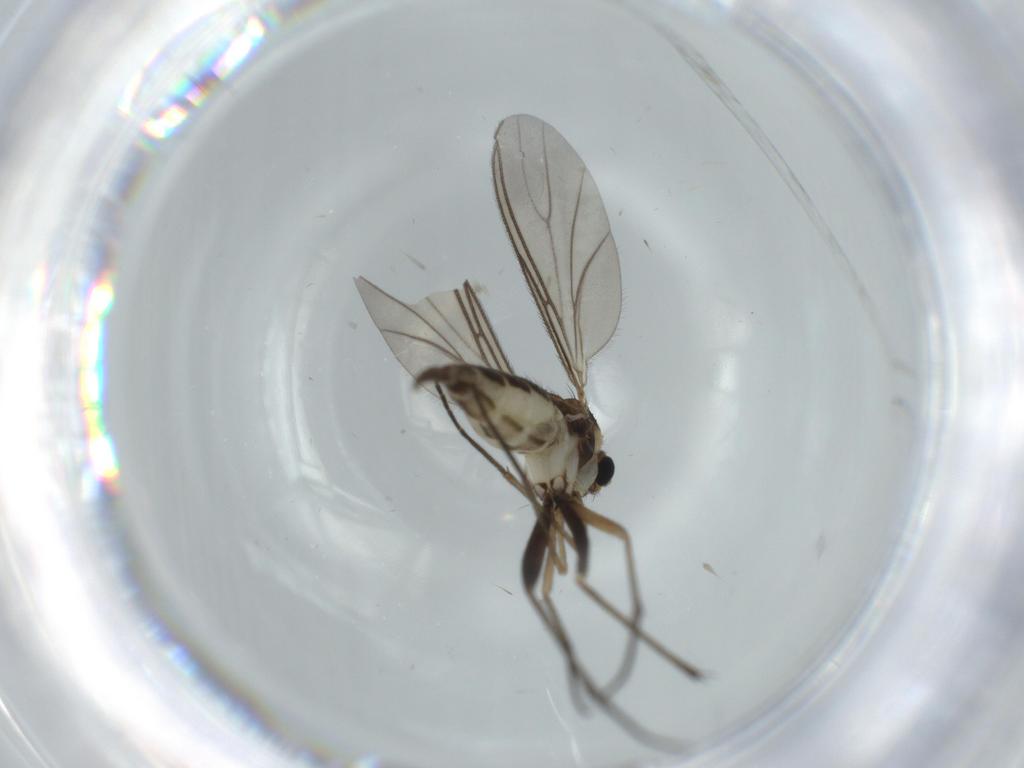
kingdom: Animalia
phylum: Arthropoda
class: Insecta
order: Diptera
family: Sciaridae
